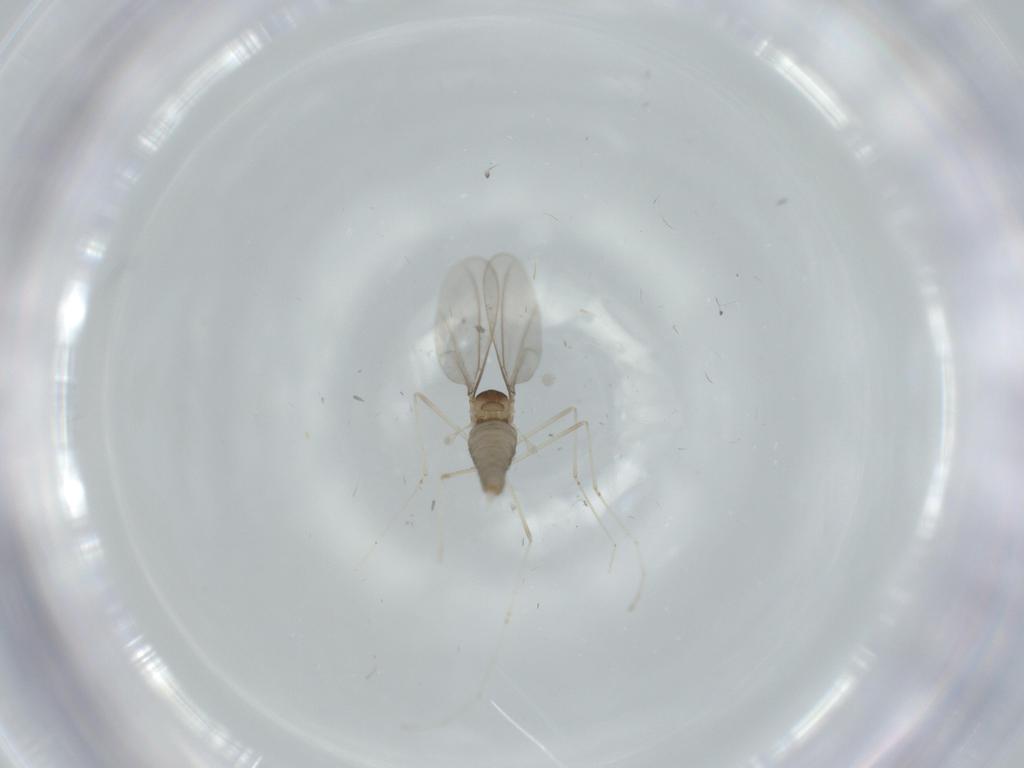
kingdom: Animalia
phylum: Arthropoda
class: Insecta
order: Diptera
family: Cecidomyiidae
